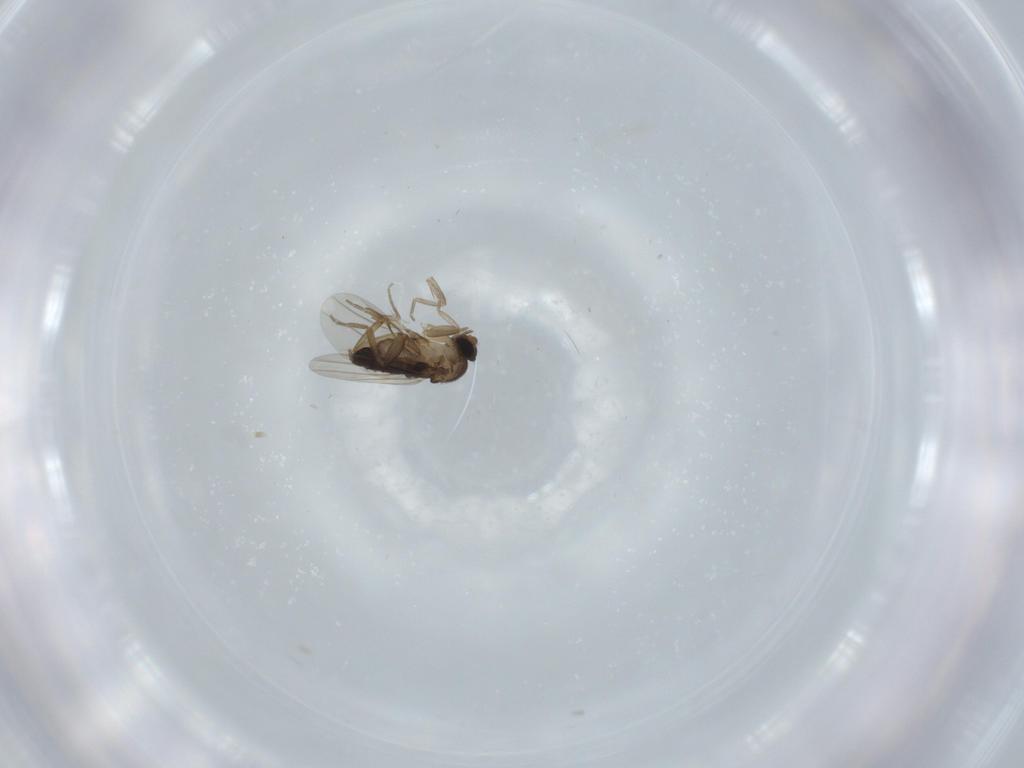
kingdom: Animalia
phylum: Arthropoda
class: Insecta
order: Diptera
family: Phoridae
